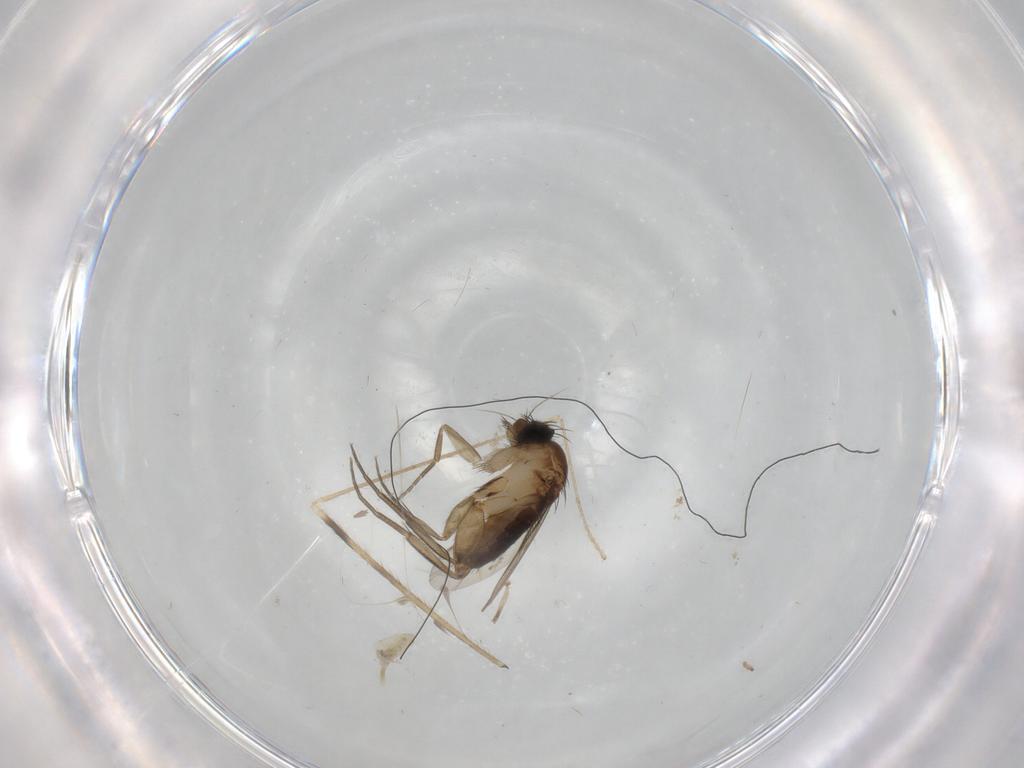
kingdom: Animalia
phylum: Arthropoda
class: Insecta
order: Diptera
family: Phoridae
